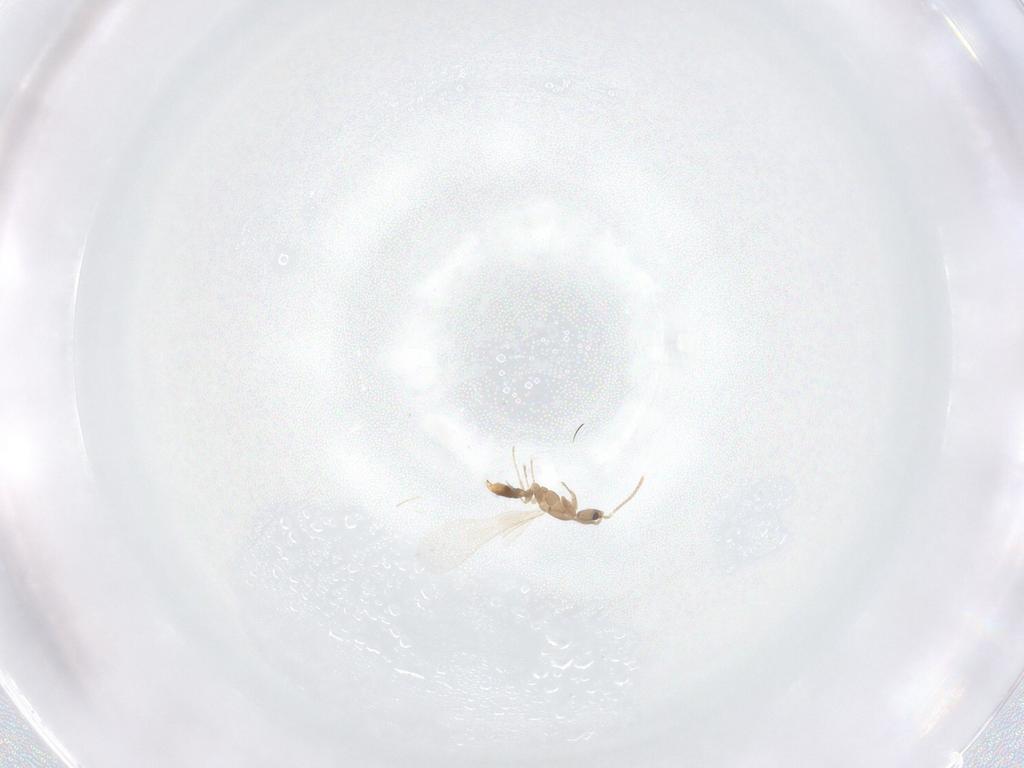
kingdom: Animalia
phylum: Arthropoda
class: Insecta
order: Hymenoptera
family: Formicidae
